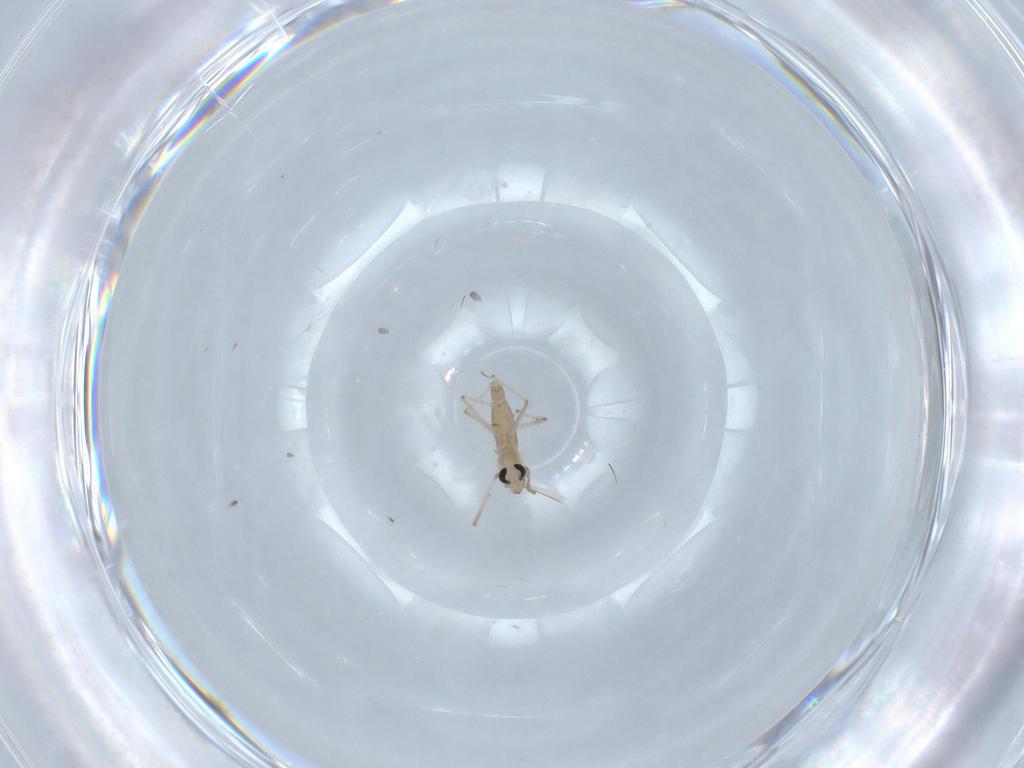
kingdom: Animalia
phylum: Arthropoda
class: Insecta
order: Diptera
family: Chironomidae
